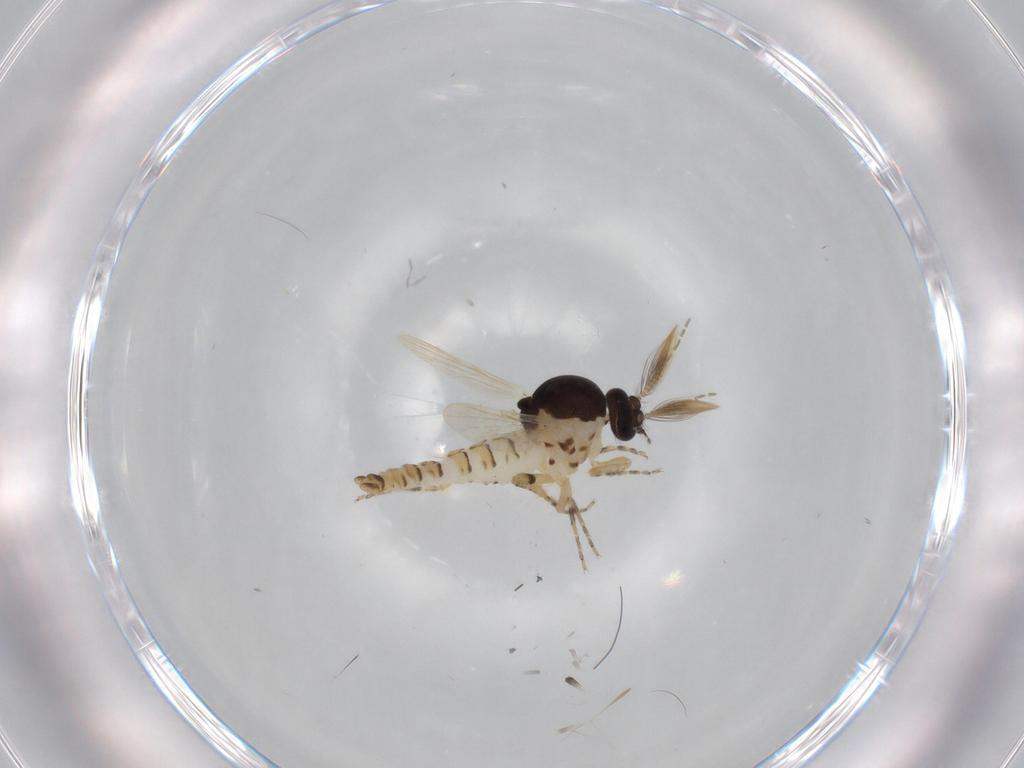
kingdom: Animalia
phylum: Arthropoda
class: Insecta
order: Diptera
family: Ceratopogonidae
